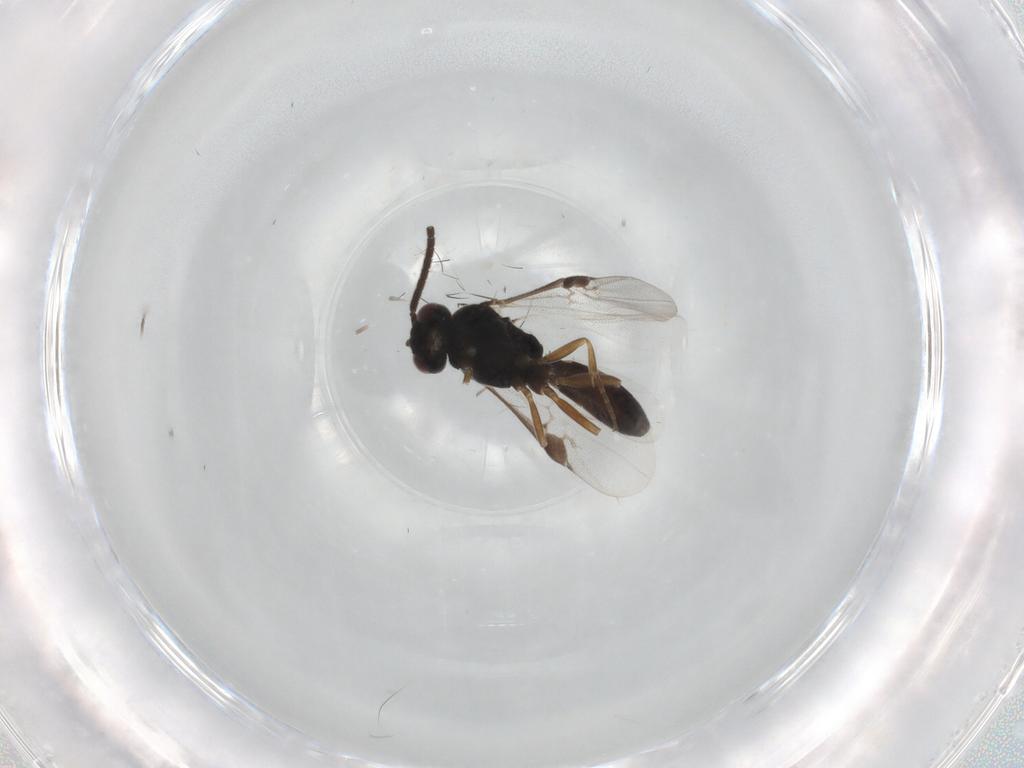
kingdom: Animalia
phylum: Arthropoda
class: Insecta
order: Hymenoptera
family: Braconidae
